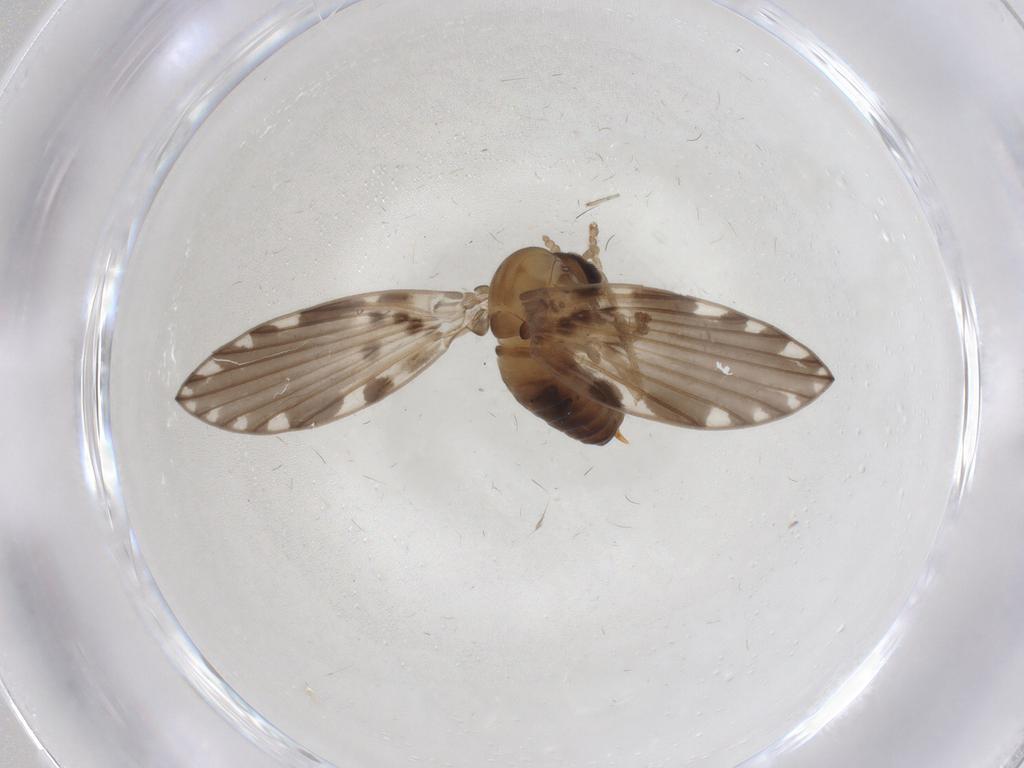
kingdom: Animalia
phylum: Arthropoda
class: Insecta
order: Diptera
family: Psychodidae
